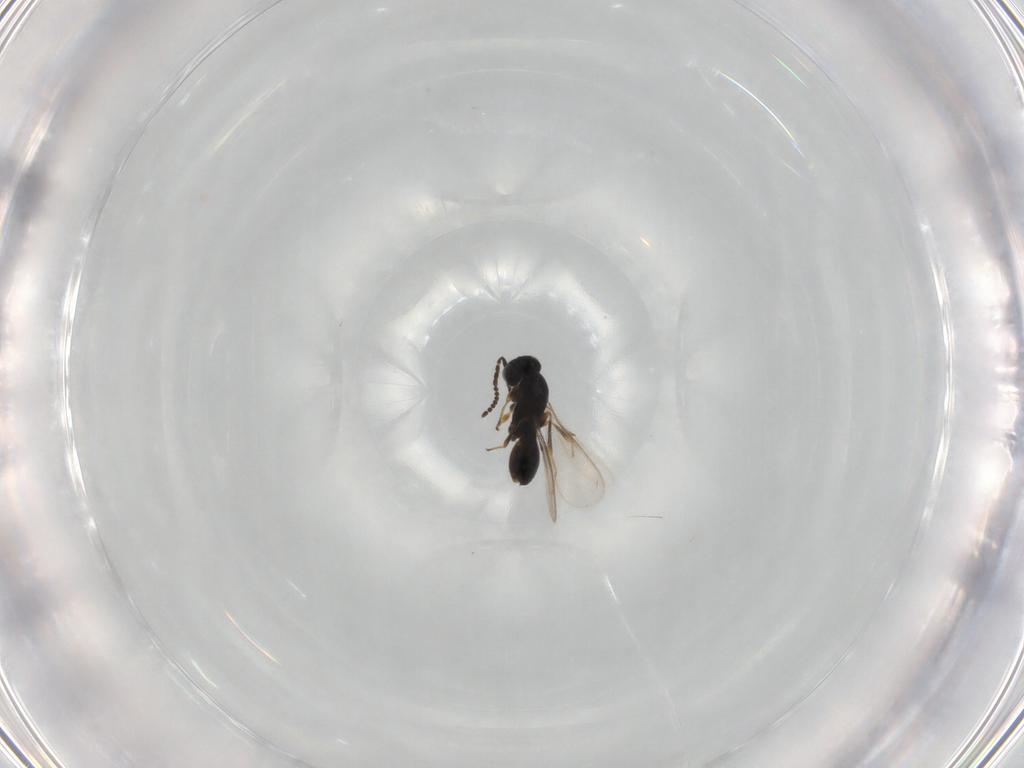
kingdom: Animalia
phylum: Arthropoda
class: Insecta
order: Hymenoptera
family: Scelionidae
